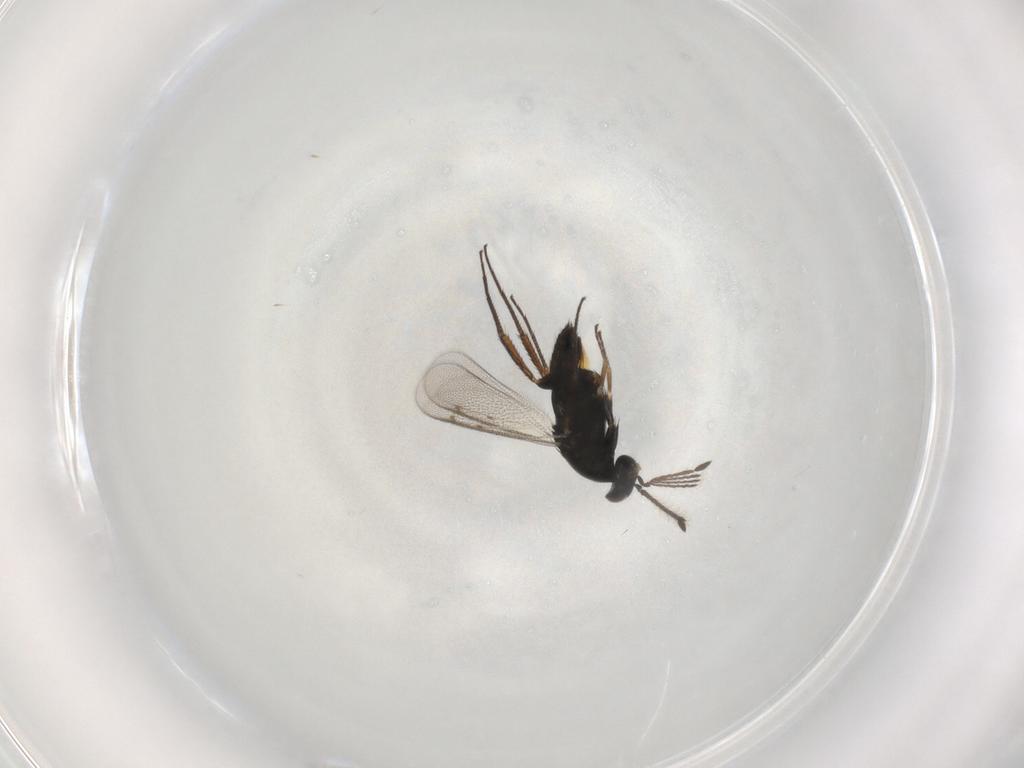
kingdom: Animalia
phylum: Arthropoda
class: Insecta
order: Hymenoptera
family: Eulophidae
